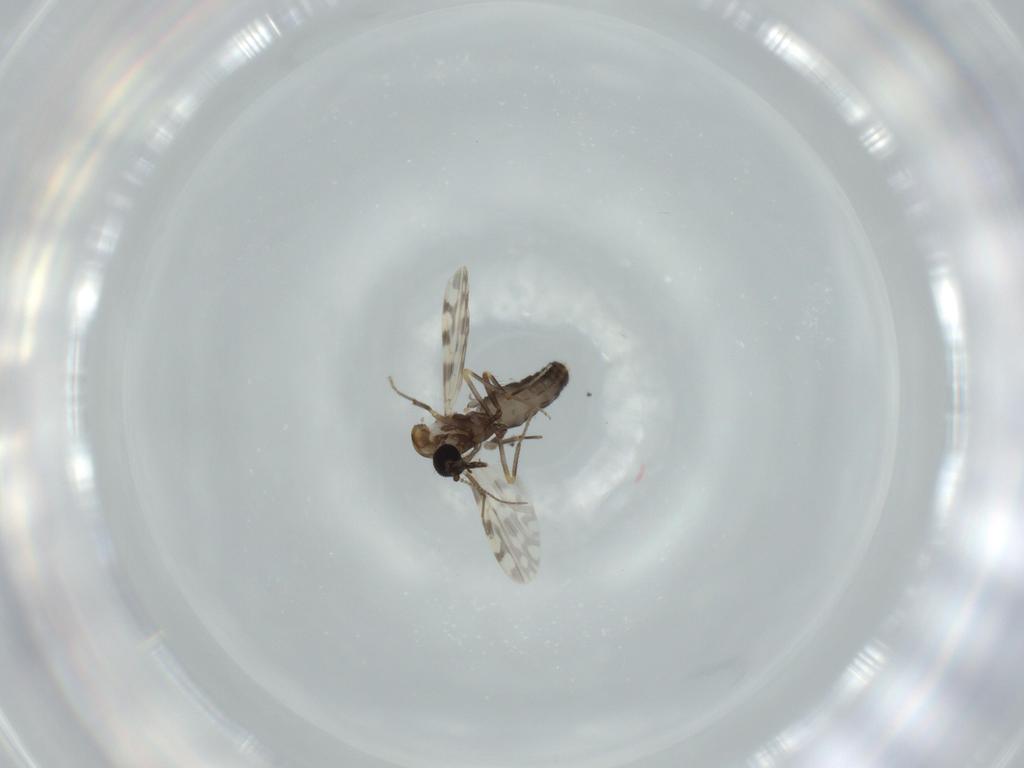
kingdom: Animalia
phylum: Arthropoda
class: Insecta
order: Diptera
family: Ceratopogonidae
